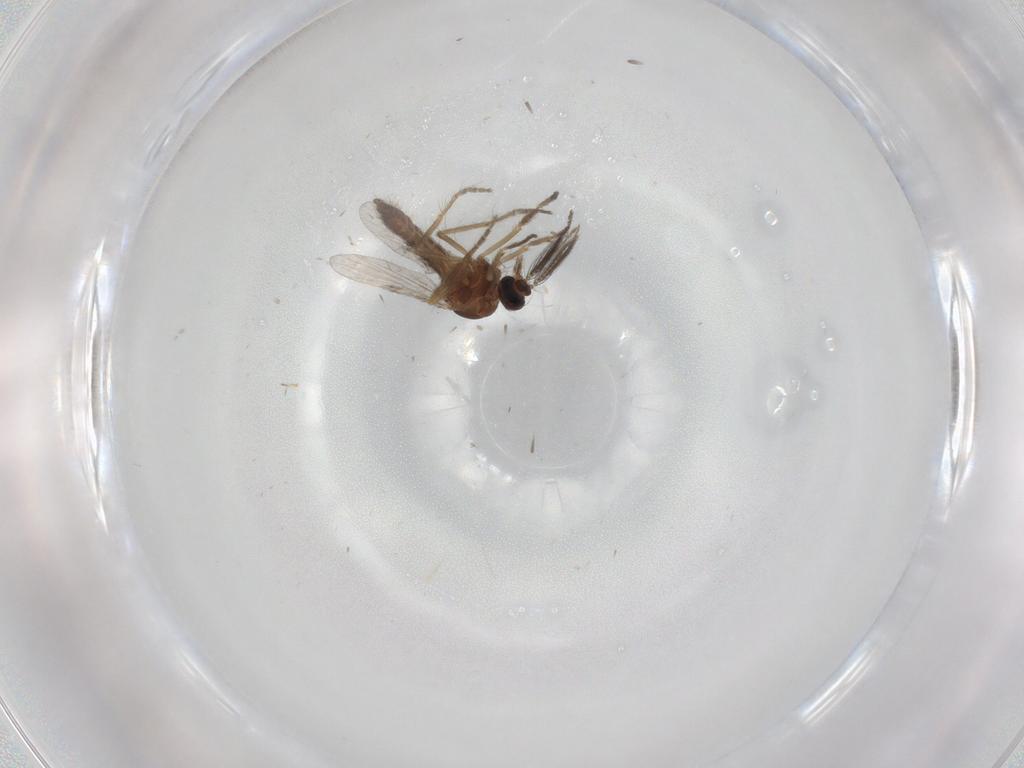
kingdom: Animalia
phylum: Arthropoda
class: Insecta
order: Diptera
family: Ceratopogonidae
